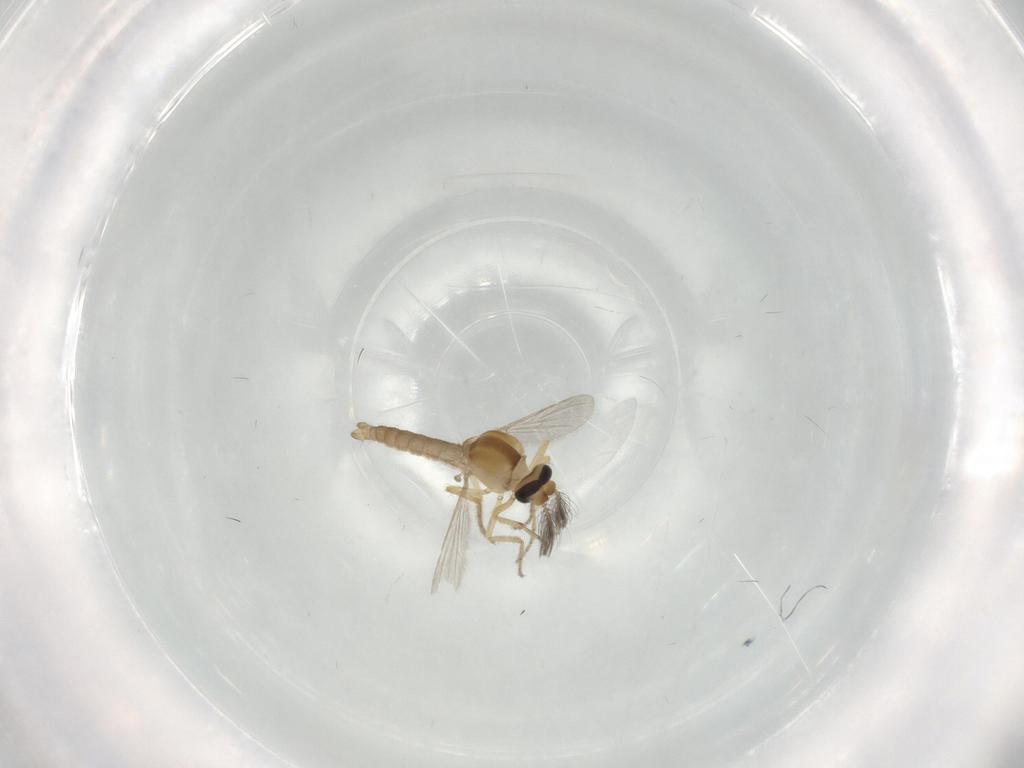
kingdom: Animalia
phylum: Arthropoda
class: Insecta
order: Diptera
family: Ceratopogonidae
